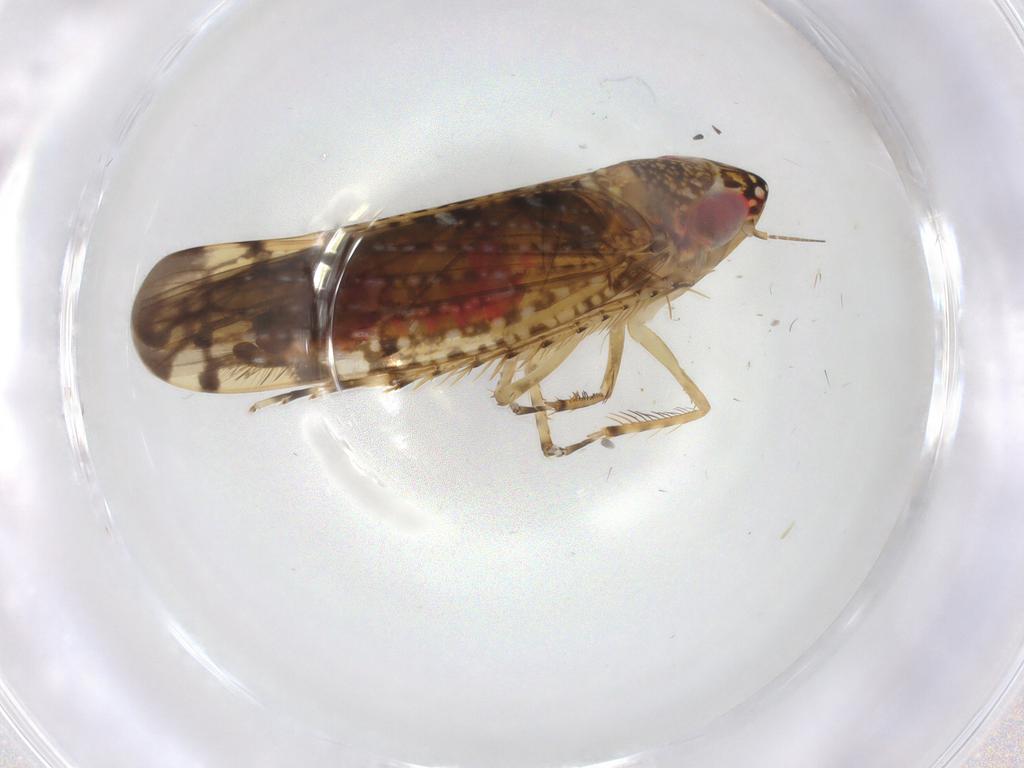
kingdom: Animalia
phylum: Arthropoda
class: Insecta
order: Hemiptera
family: Cicadellidae
